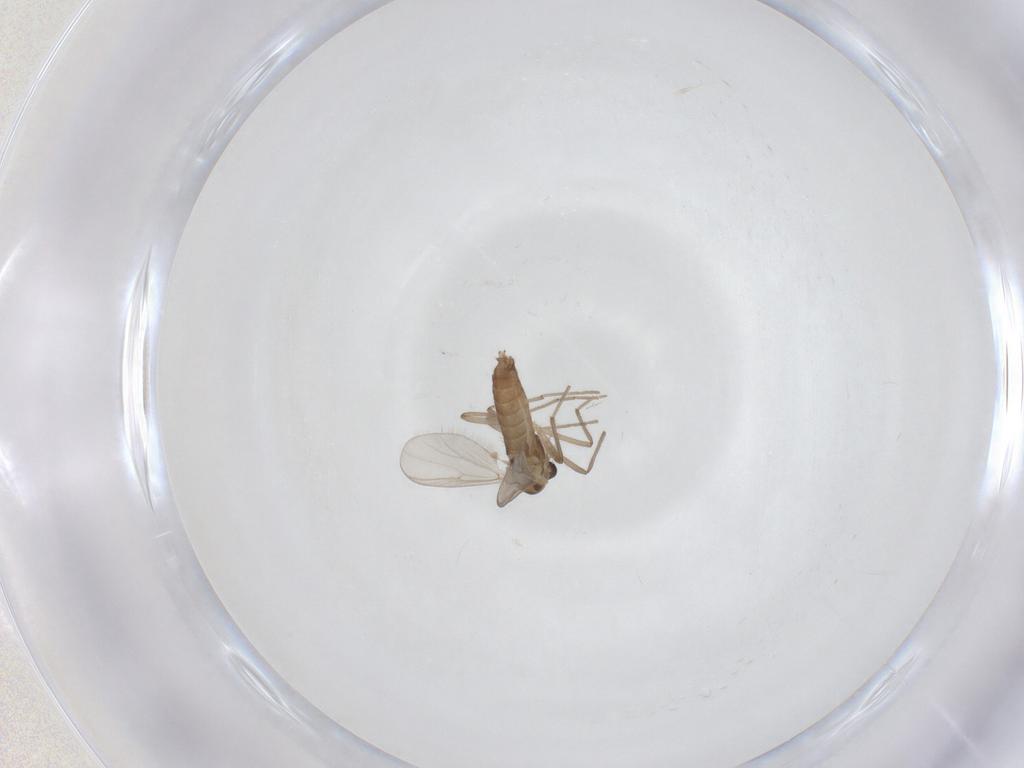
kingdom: Animalia
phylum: Arthropoda
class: Insecta
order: Diptera
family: Chironomidae
